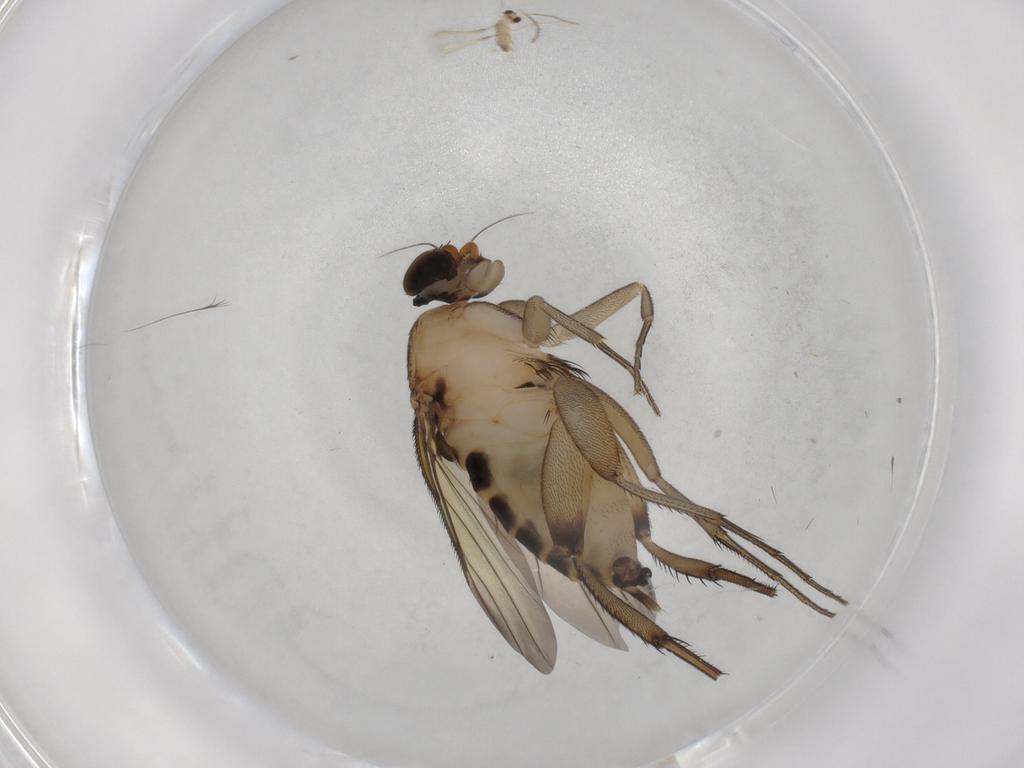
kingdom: Animalia
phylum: Arthropoda
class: Insecta
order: Diptera
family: Phoridae
